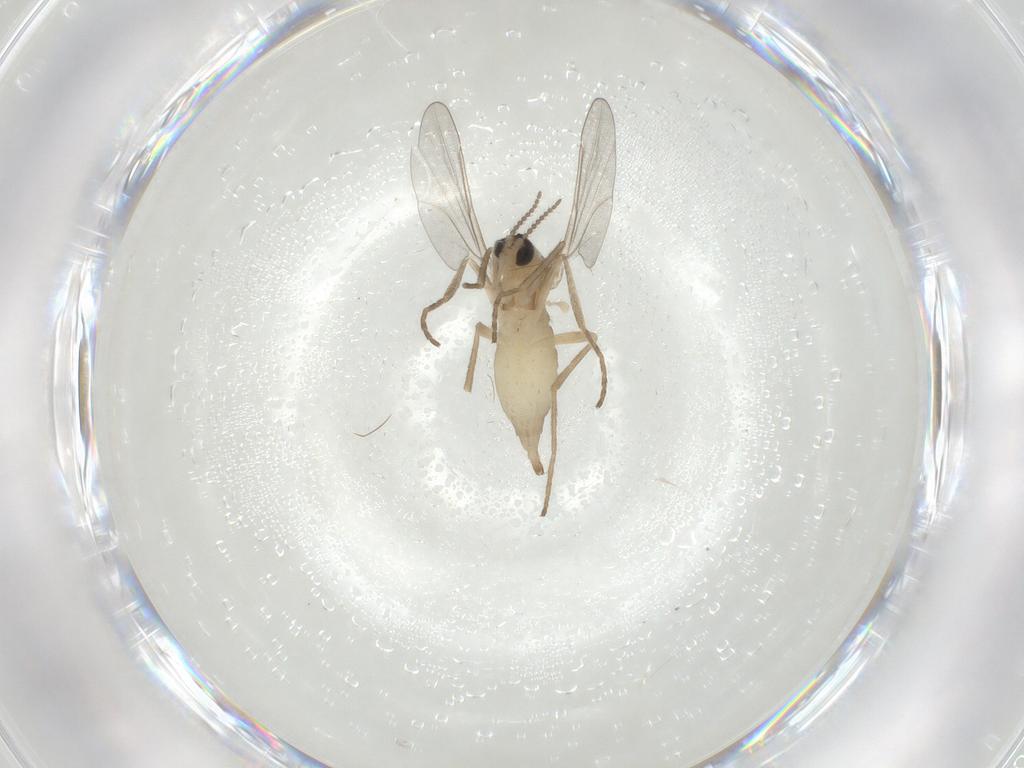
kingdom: Animalia
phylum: Arthropoda
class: Insecta
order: Diptera
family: Cecidomyiidae
